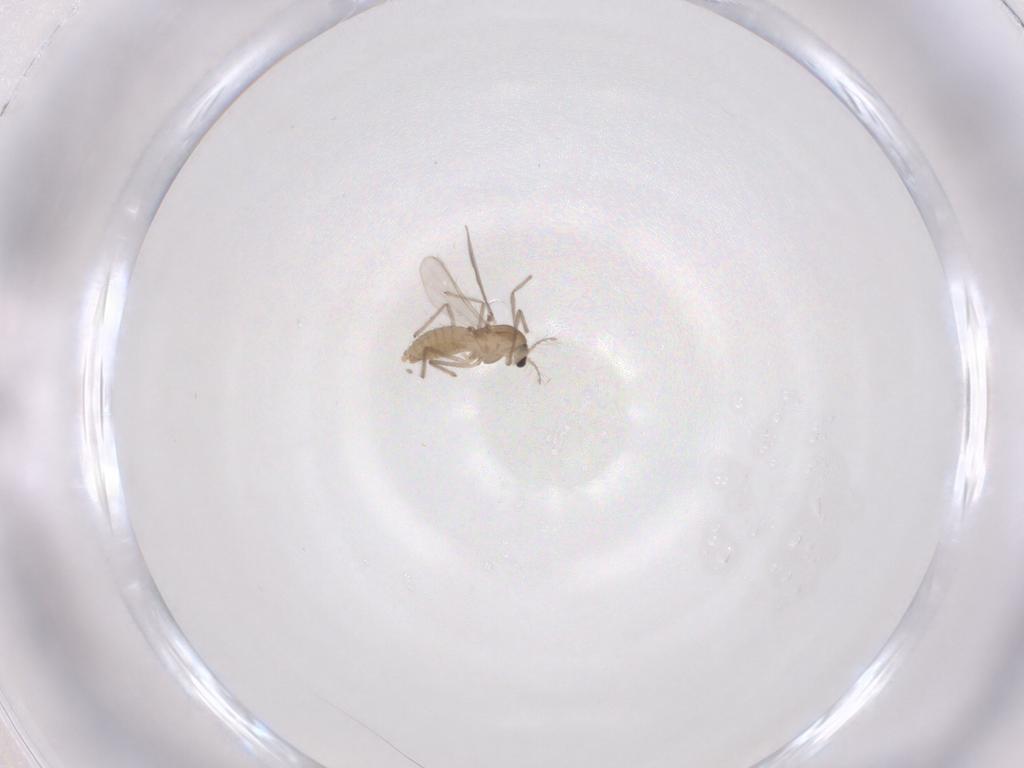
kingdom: Animalia
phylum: Arthropoda
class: Insecta
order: Diptera
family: Chironomidae
